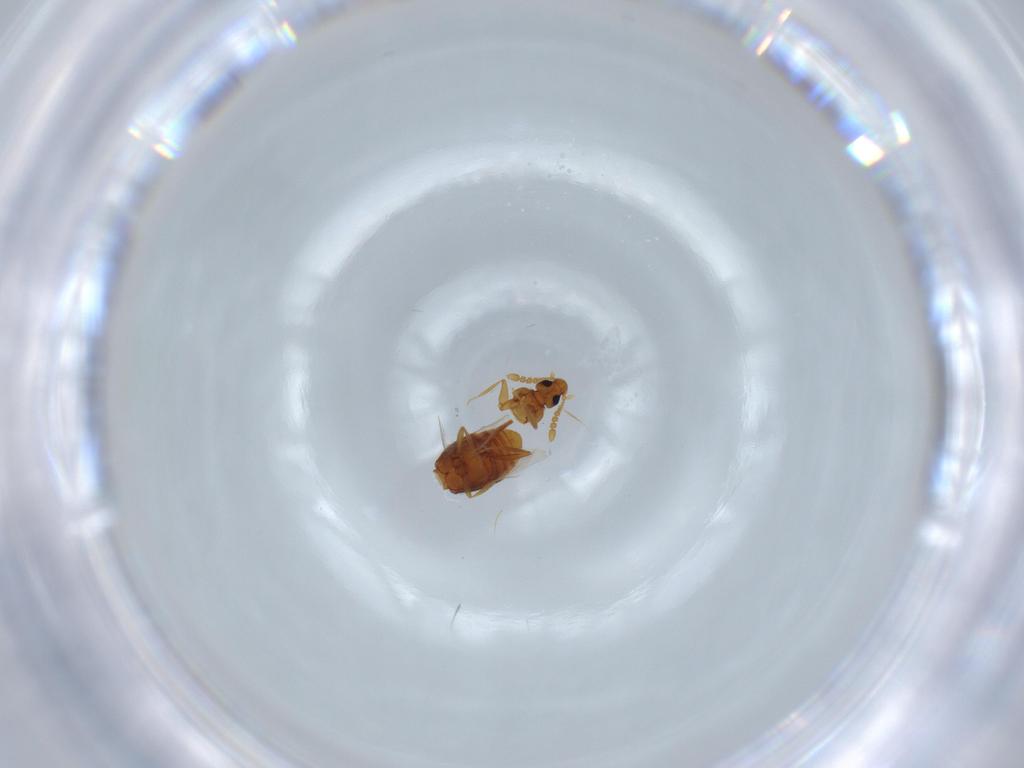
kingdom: Animalia
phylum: Arthropoda
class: Insecta
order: Coleoptera
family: Staphylinidae
